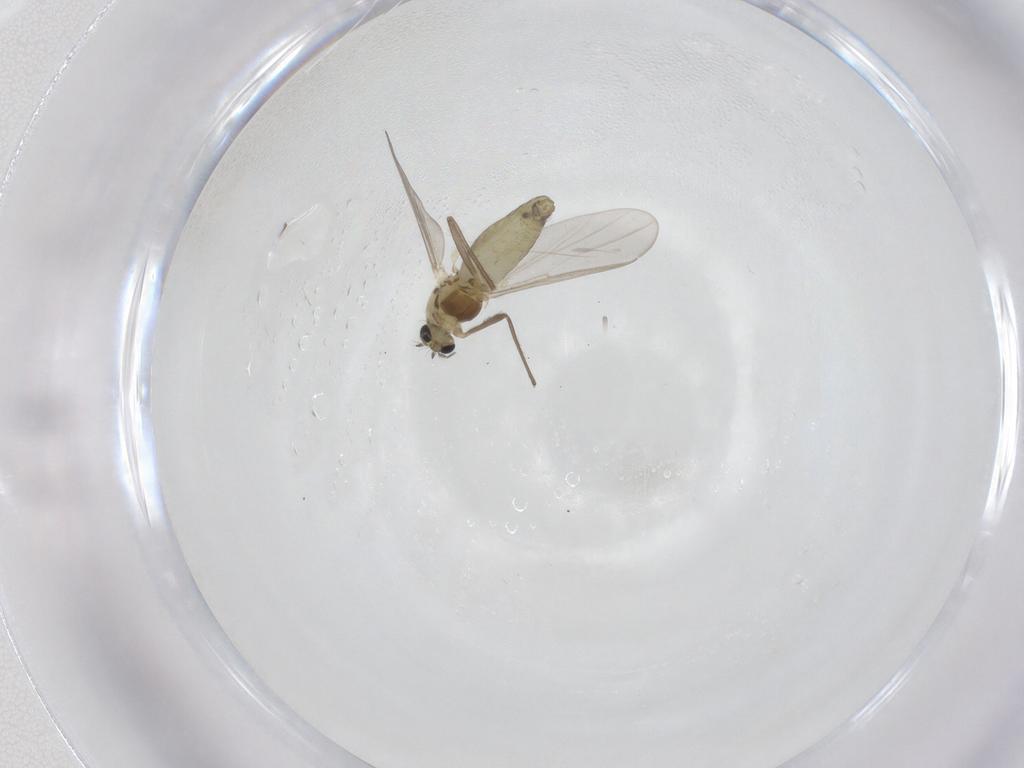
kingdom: Animalia
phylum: Arthropoda
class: Insecta
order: Diptera
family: Chironomidae
